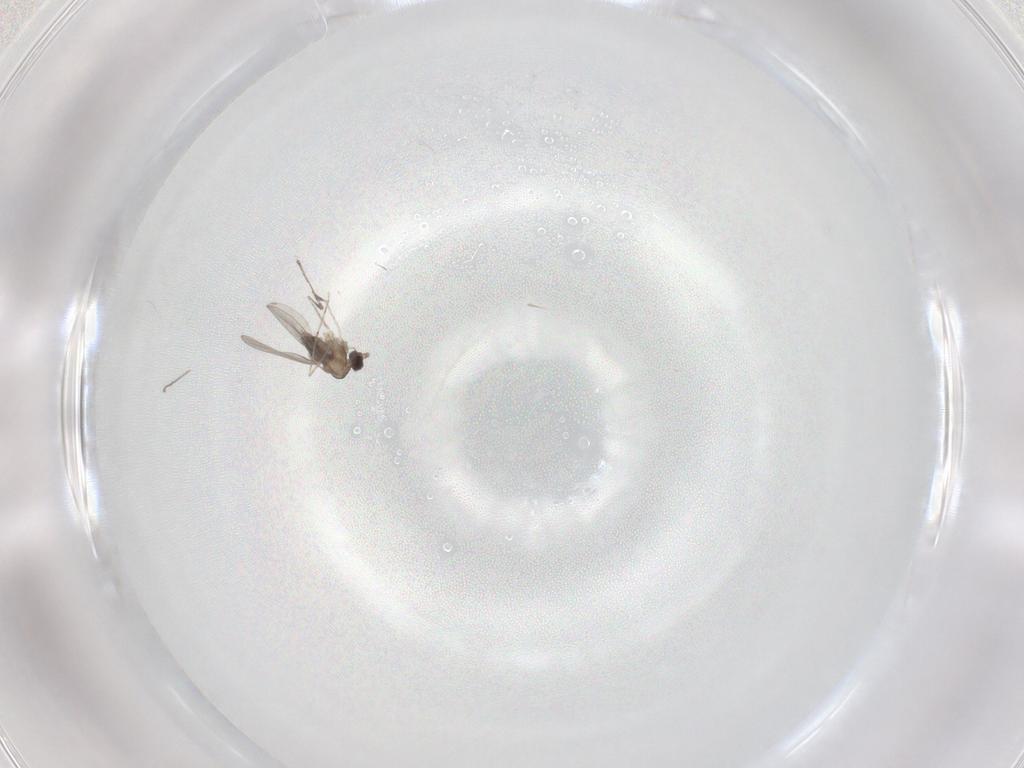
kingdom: Animalia
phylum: Arthropoda
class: Insecta
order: Diptera
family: Cecidomyiidae
